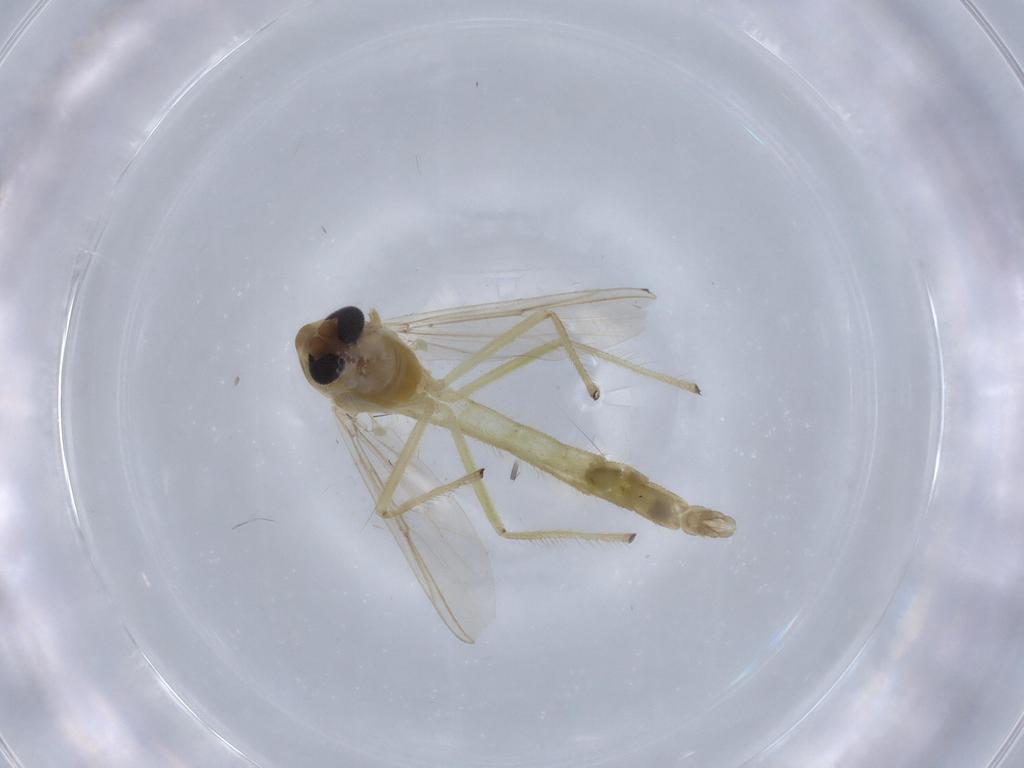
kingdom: Animalia
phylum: Arthropoda
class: Insecta
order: Diptera
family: Chironomidae
